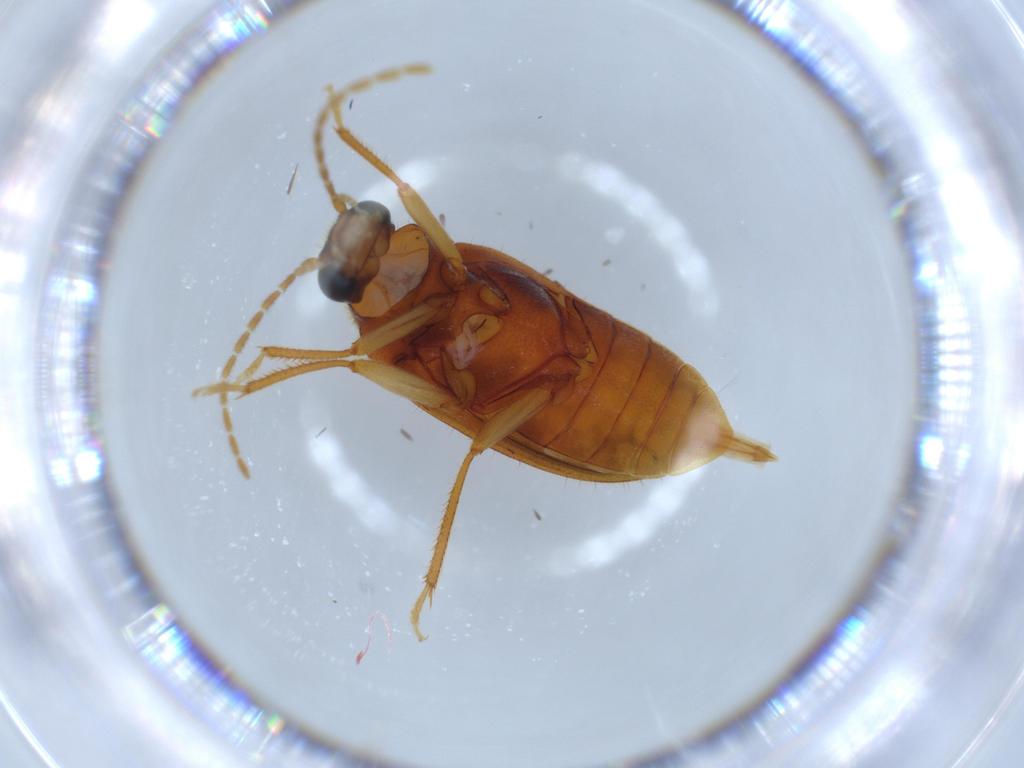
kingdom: Animalia
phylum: Arthropoda
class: Insecta
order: Coleoptera
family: Ptilodactylidae
